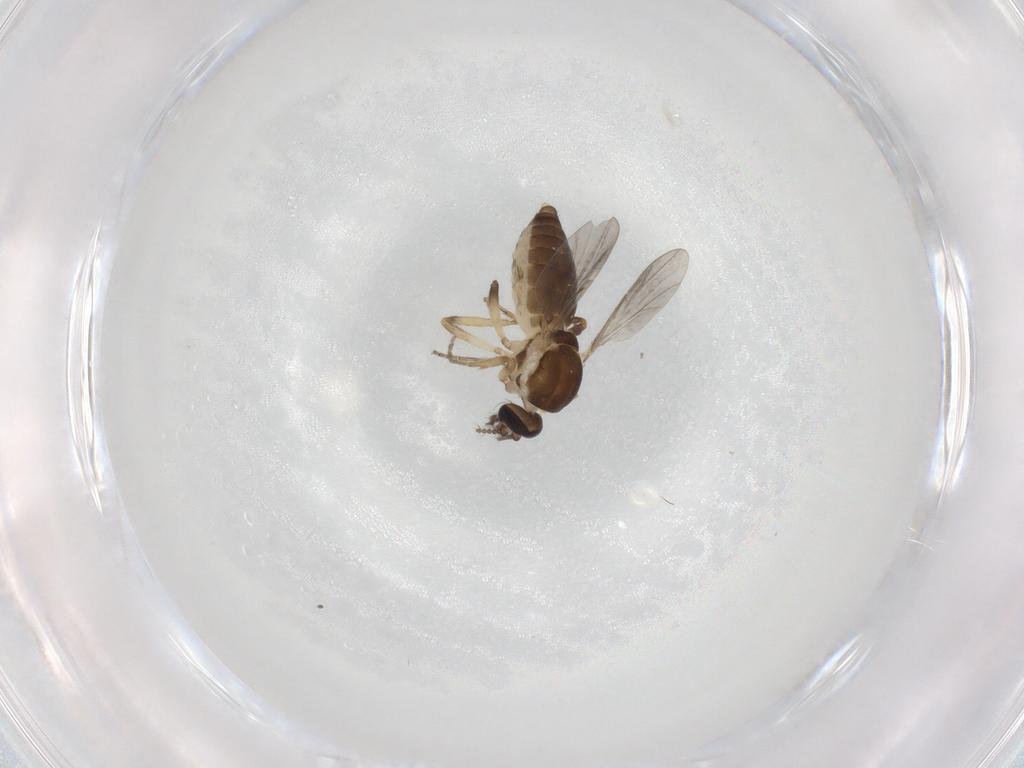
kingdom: Animalia
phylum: Arthropoda
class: Insecta
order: Diptera
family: Ceratopogonidae
